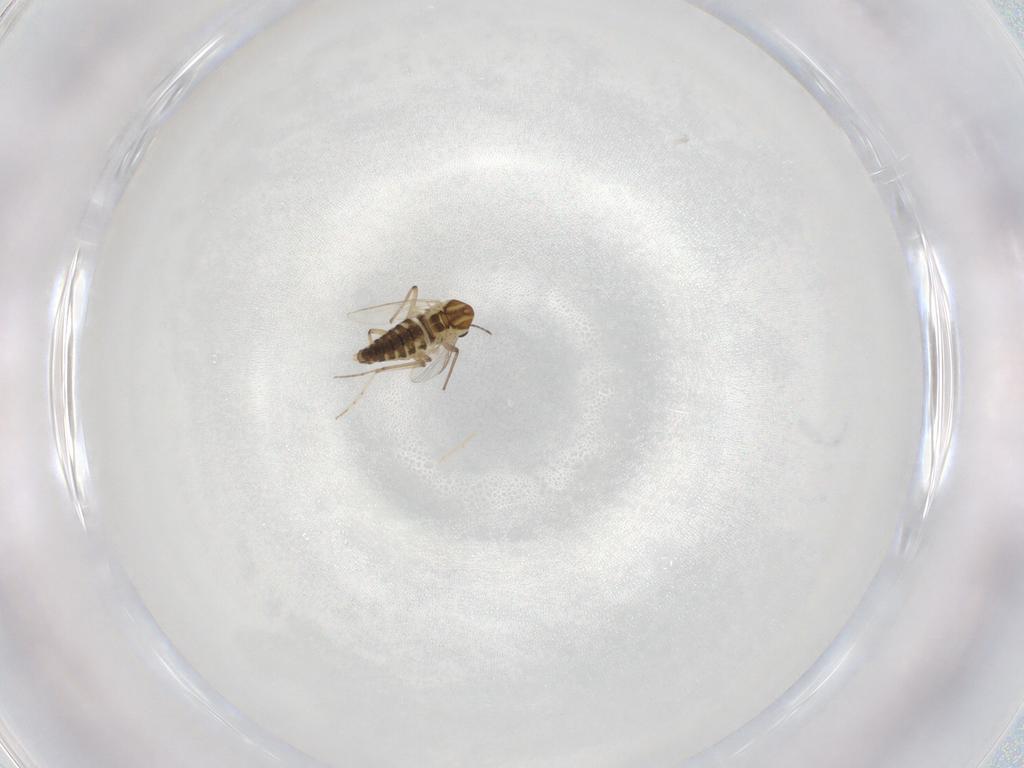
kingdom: Animalia
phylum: Arthropoda
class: Insecta
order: Diptera
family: Chironomidae
